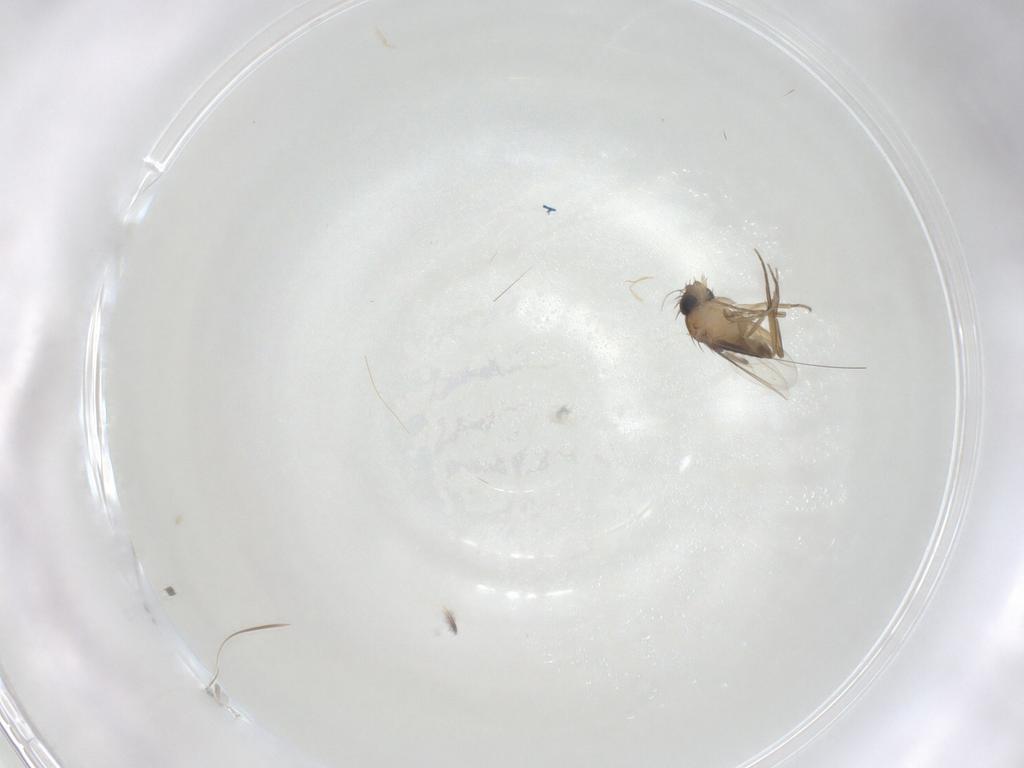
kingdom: Animalia
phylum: Arthropoda
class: Insecta
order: Diptera
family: Phoridae
